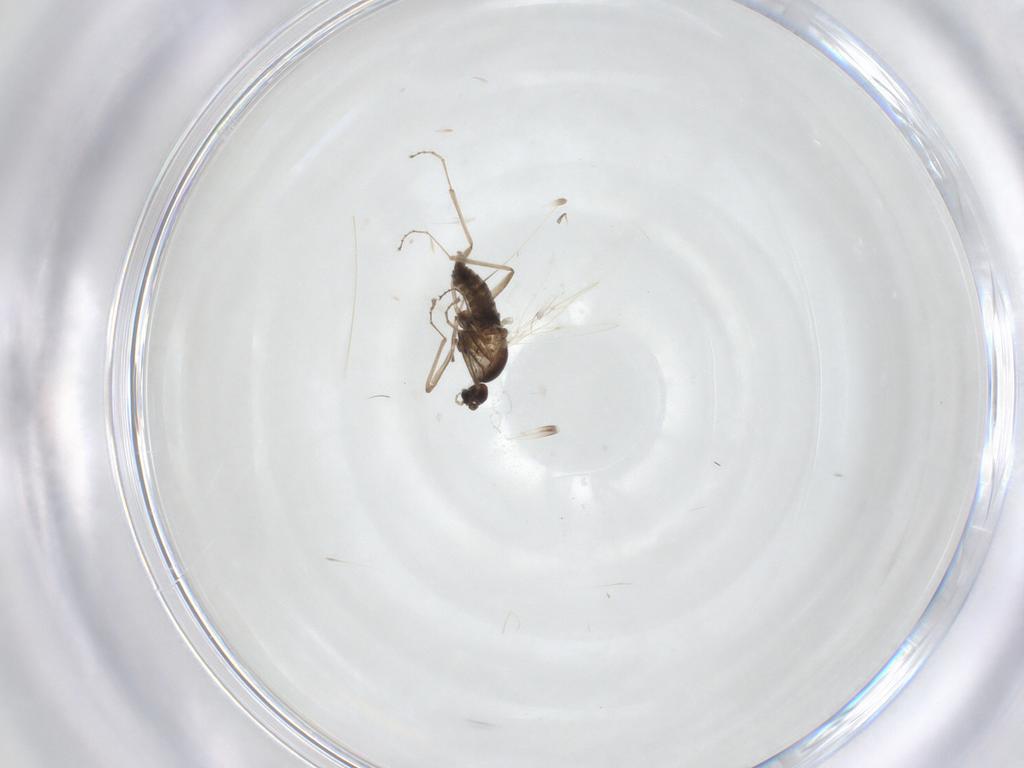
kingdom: Animalia
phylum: Arthropoda
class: Insecta
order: Diptera
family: Cecidomyiidae
